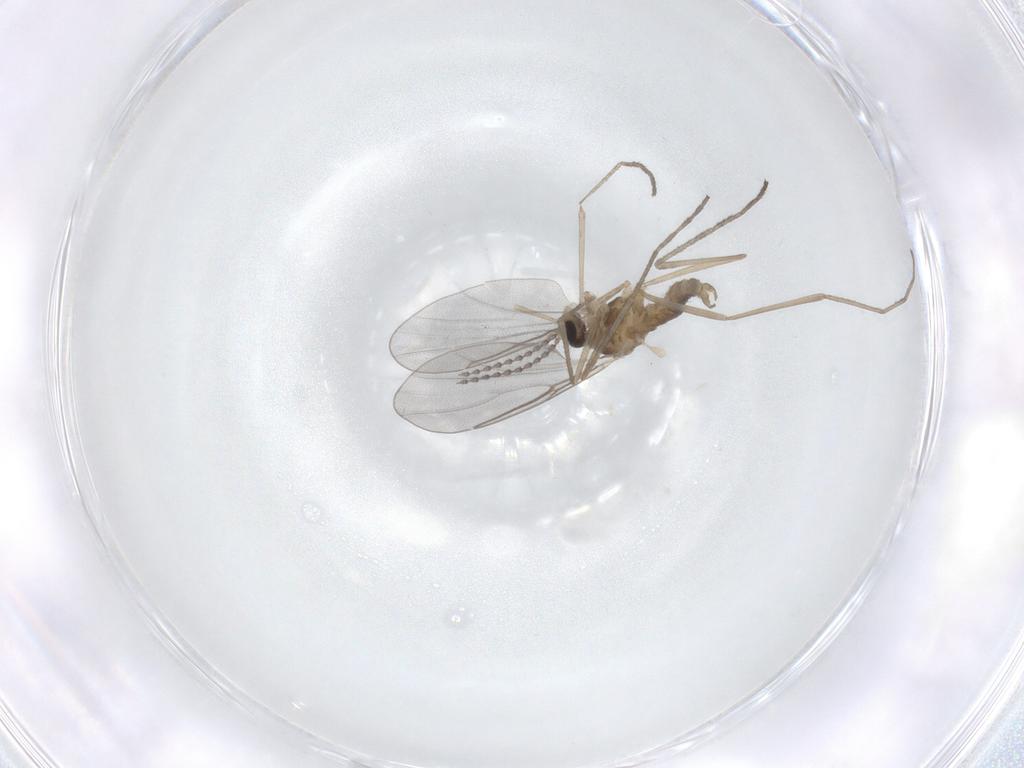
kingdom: Animalia
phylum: Arthropoda
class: Insecta
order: Diptera
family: Cecidomyiidae
